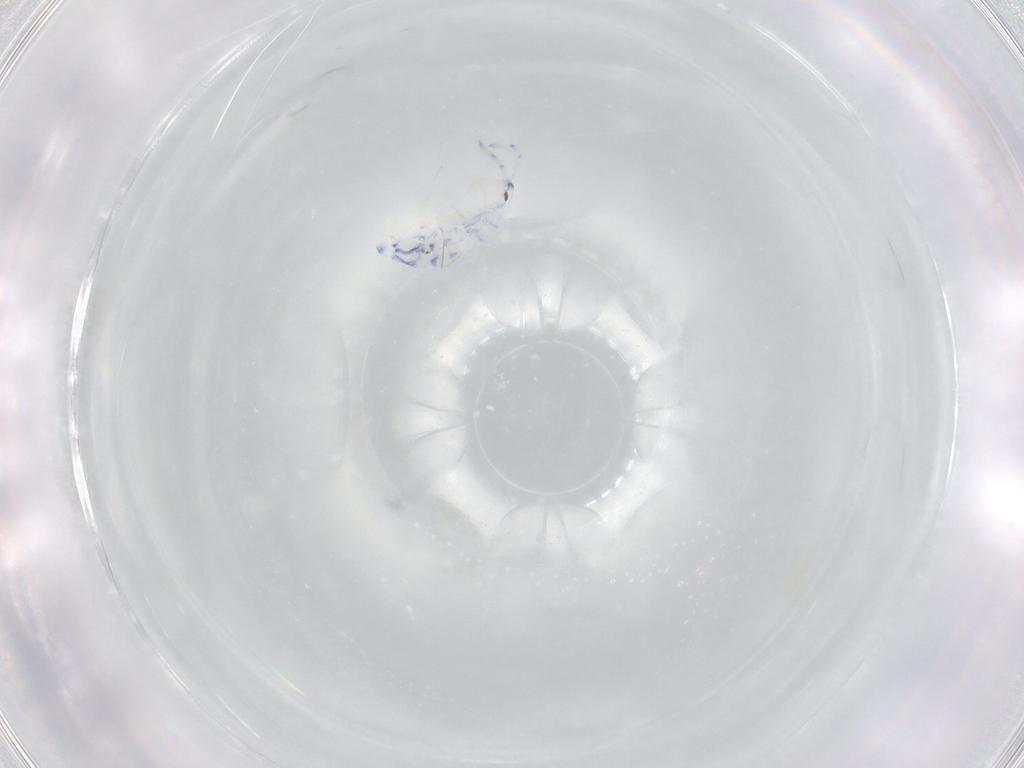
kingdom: Animalia
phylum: Arthropoda
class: Collembola
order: Entomobryomorpha
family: Entomobryidae
